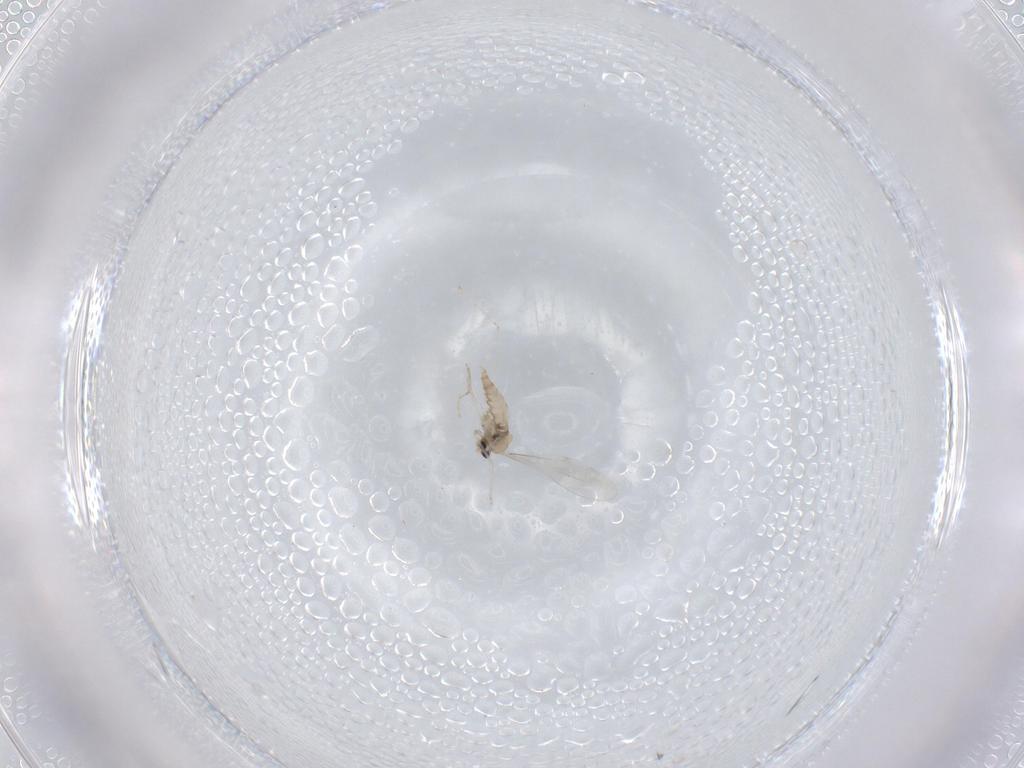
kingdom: Animalia
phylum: Arthropoda
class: Insecta
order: Diptera
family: Cecidomyiidae
